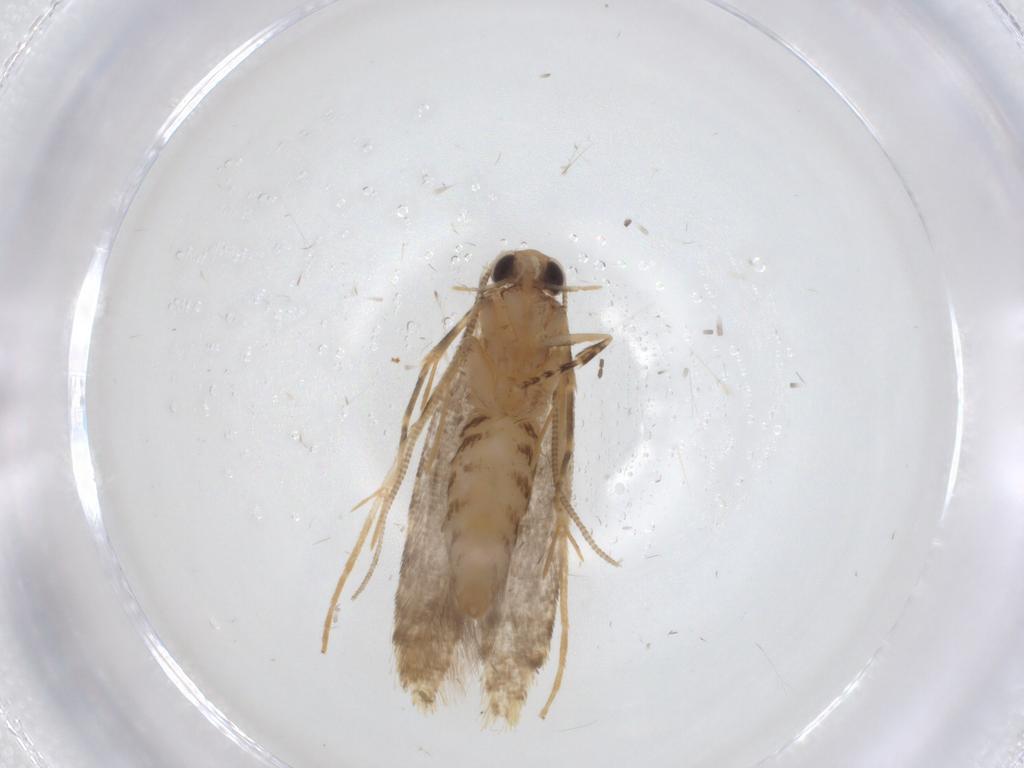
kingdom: Animalia
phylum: Arthropoda
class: Insecta
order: Lepidoptera
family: Tineidae
